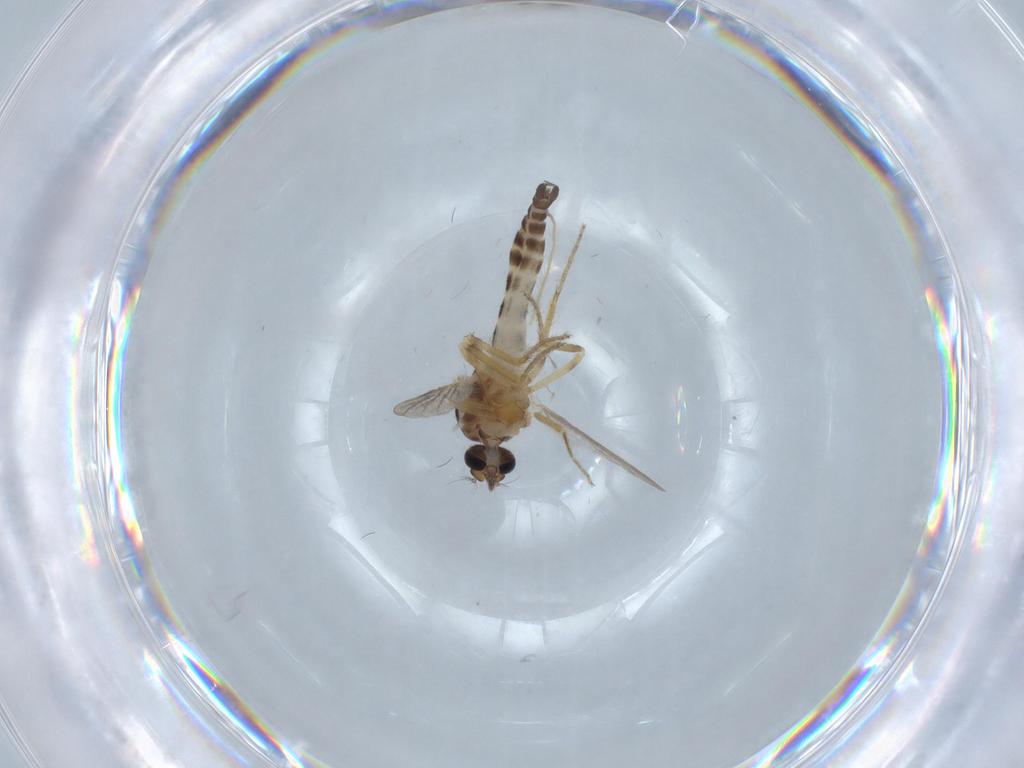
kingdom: Animalia
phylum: Arthropoda
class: Insecta
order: Diptera
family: Ceratopogonidae
